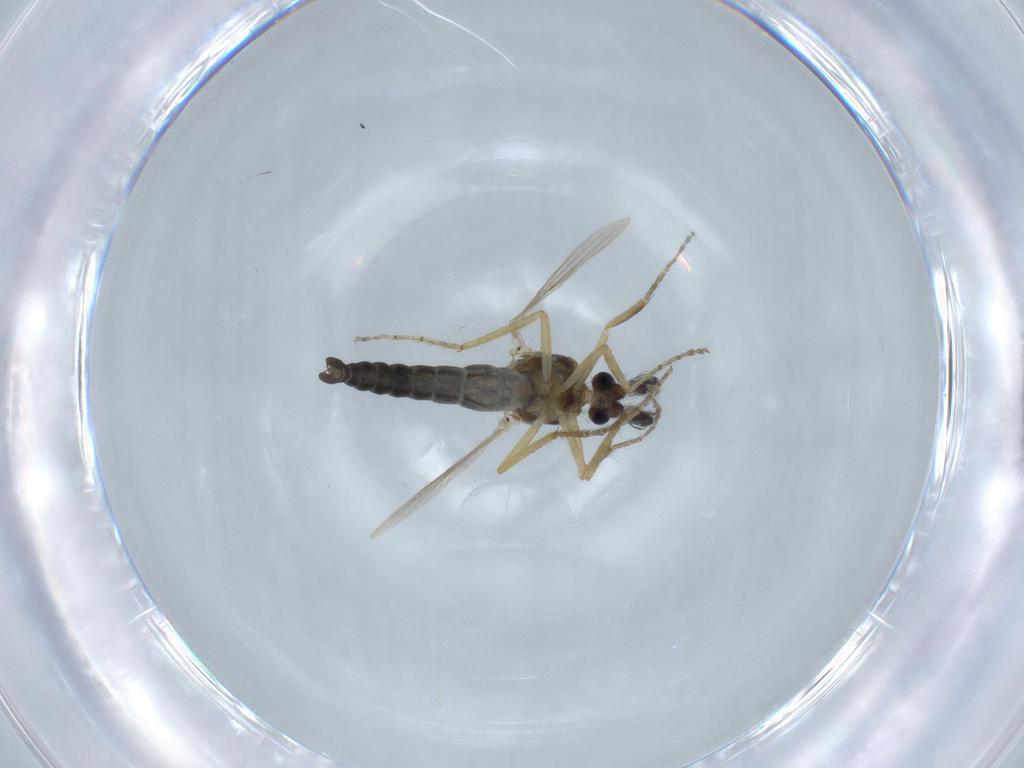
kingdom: Animalia
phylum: Arthropoda
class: Insecta
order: Diptera
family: Ceratopogonidae
